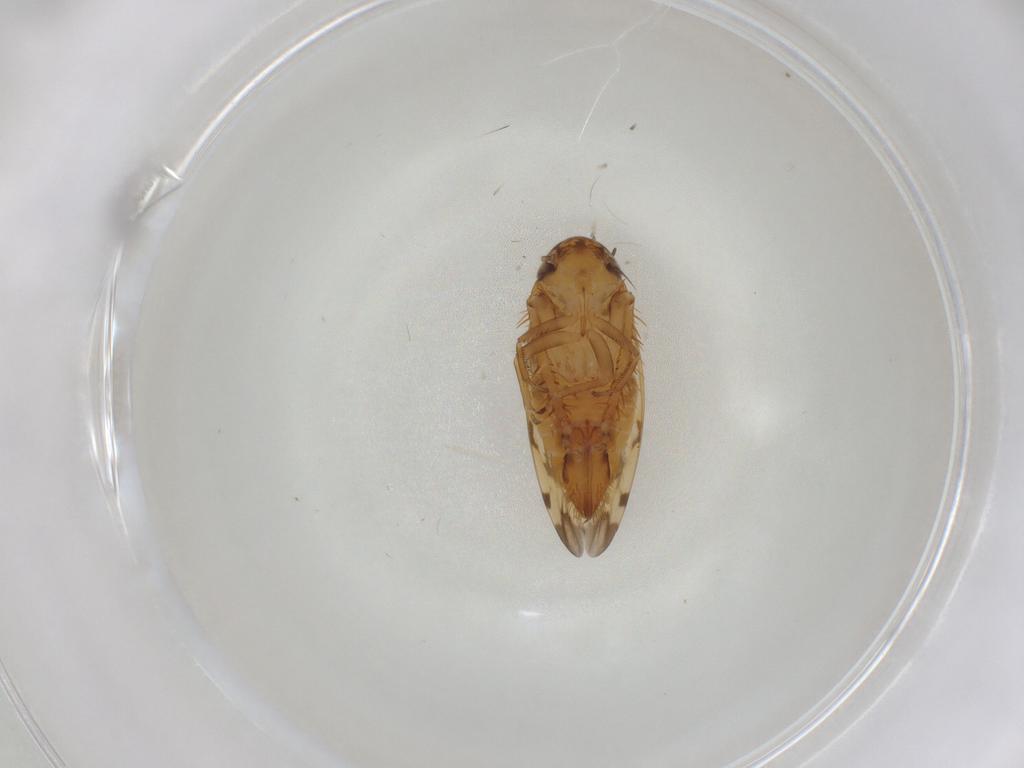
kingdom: Animalia
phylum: Arthropoda
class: Insecta
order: Hemiptera
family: Cicadellidae
